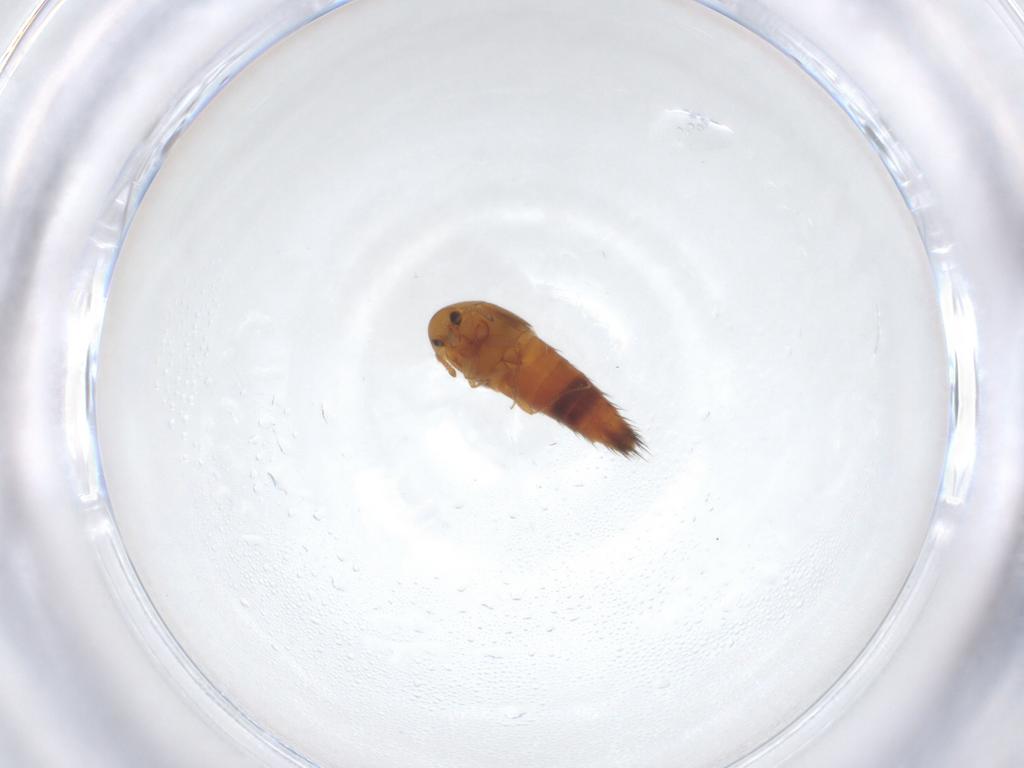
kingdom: Animalia
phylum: Arthropoda
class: Insecta
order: Coleoptera
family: Staphylinidae
